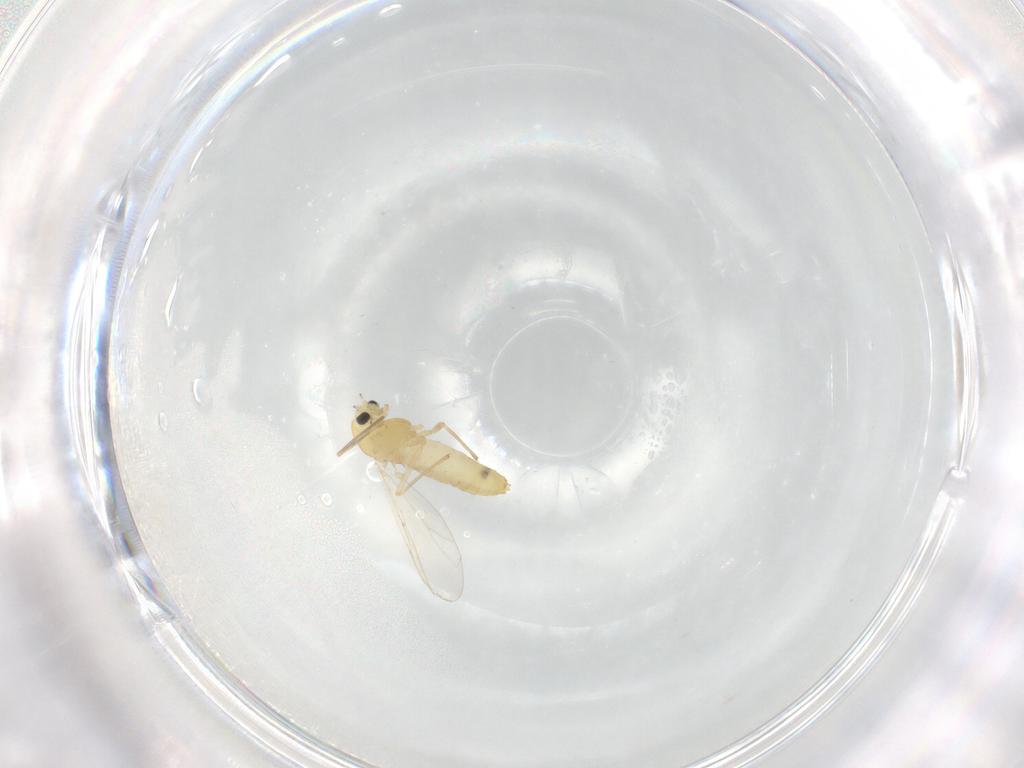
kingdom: Animalia
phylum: Arthropoda
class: Insecta
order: Diptera
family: Chironomidae
